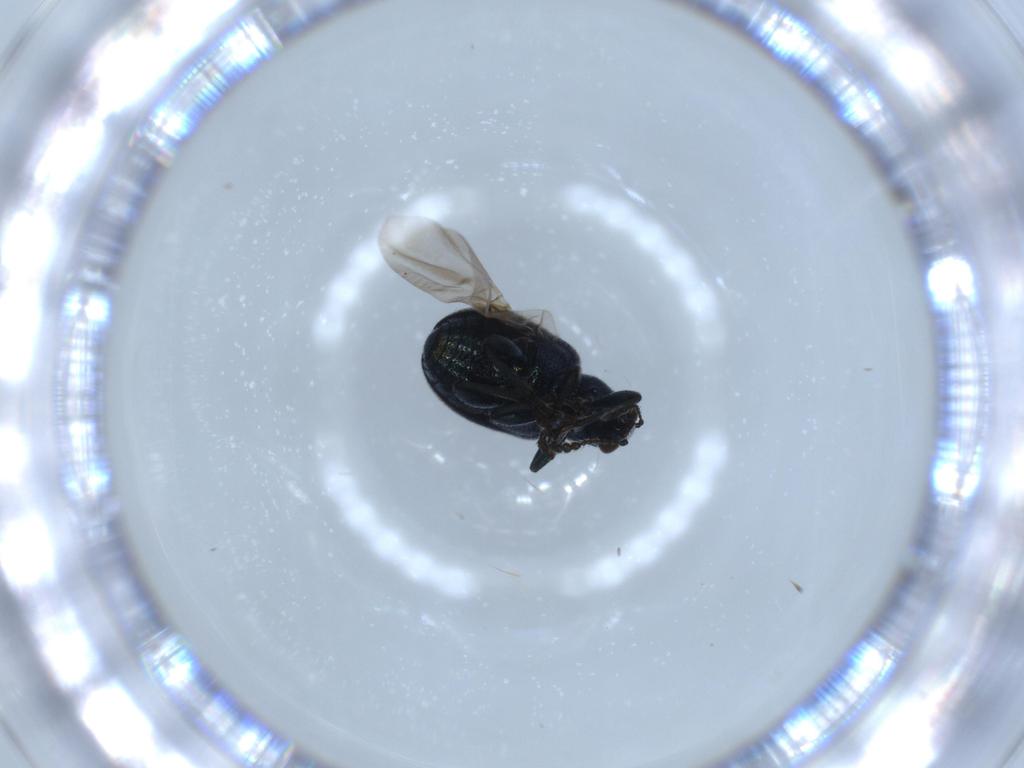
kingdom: Animalia
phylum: Arthropoda
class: Insecta
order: Coleoptera
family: Attelabidae
